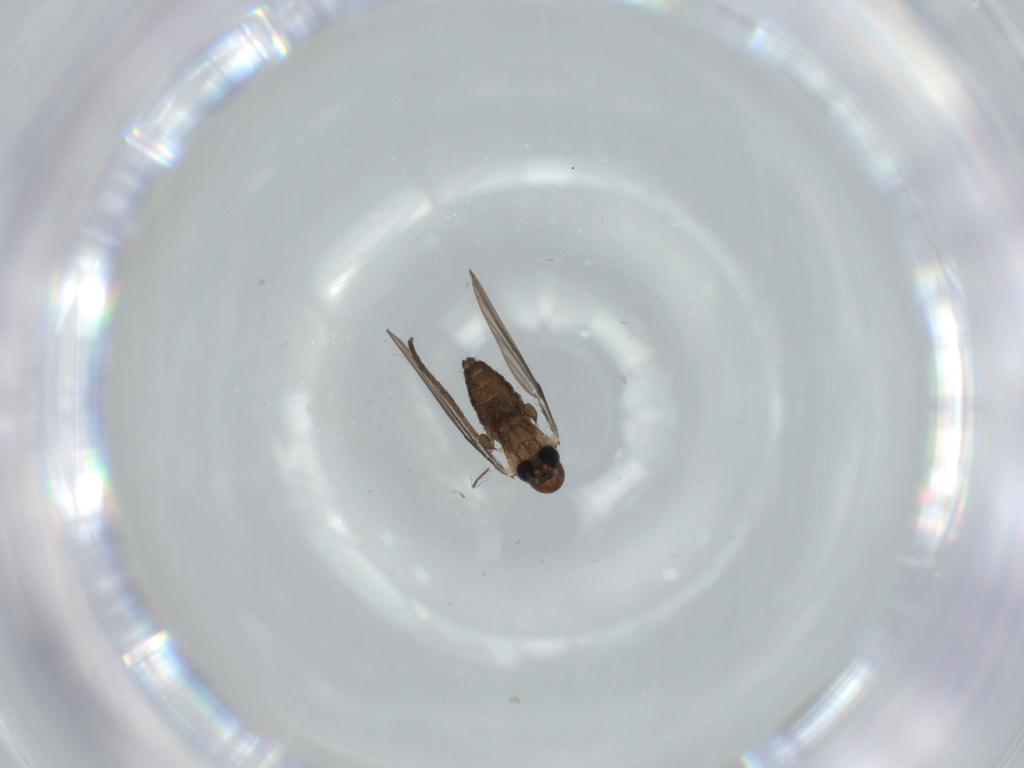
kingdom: Animalia
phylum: Arthropoda
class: Insecta
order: Diptera
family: Psychodidae
